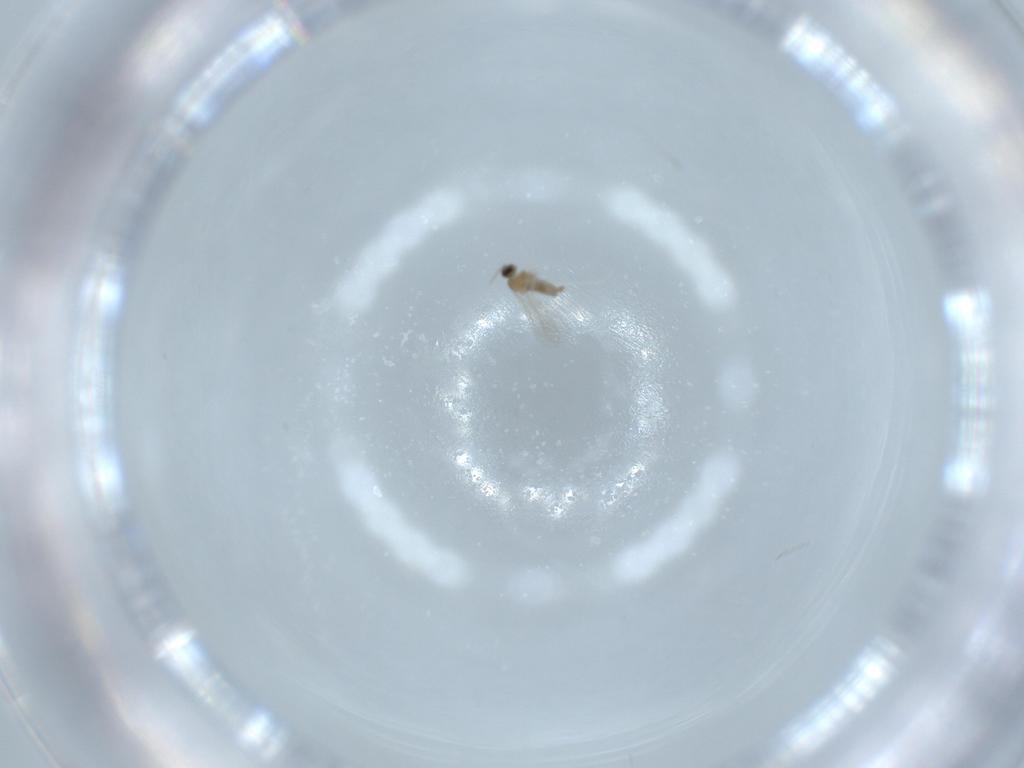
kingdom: Animalia
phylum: Arthropoda
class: Insecta
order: Diptera
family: Cecidomyiidae
